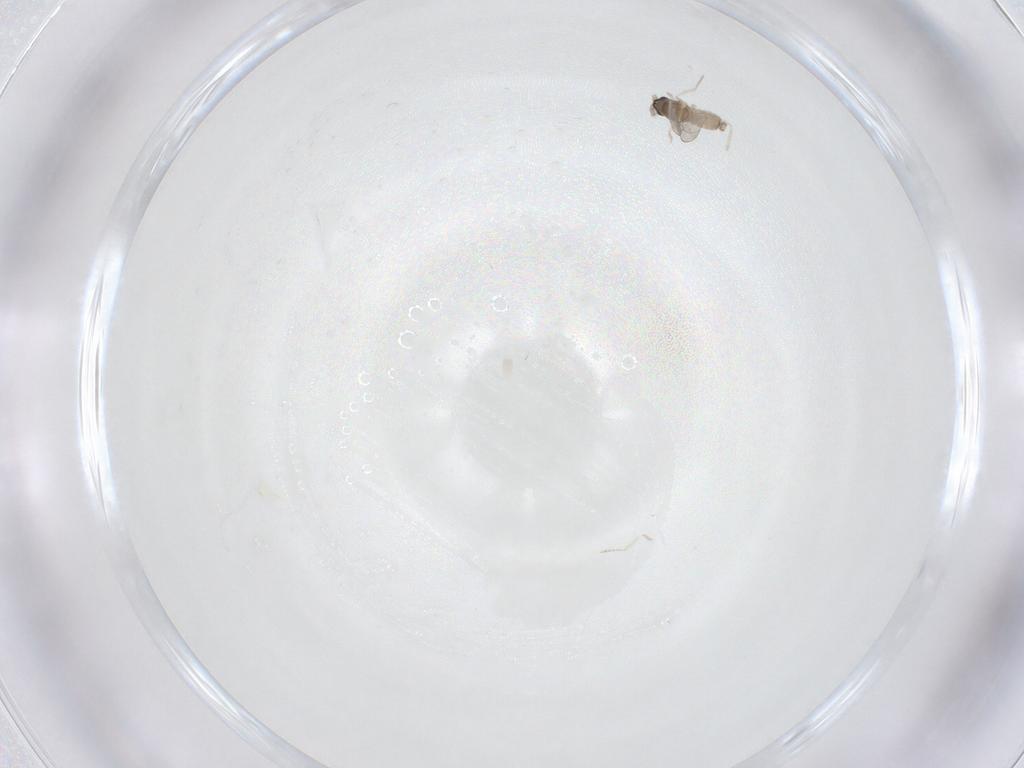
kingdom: Animalia
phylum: Arthropoda
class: Insecta
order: Diptera
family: Cecidomyiidae
